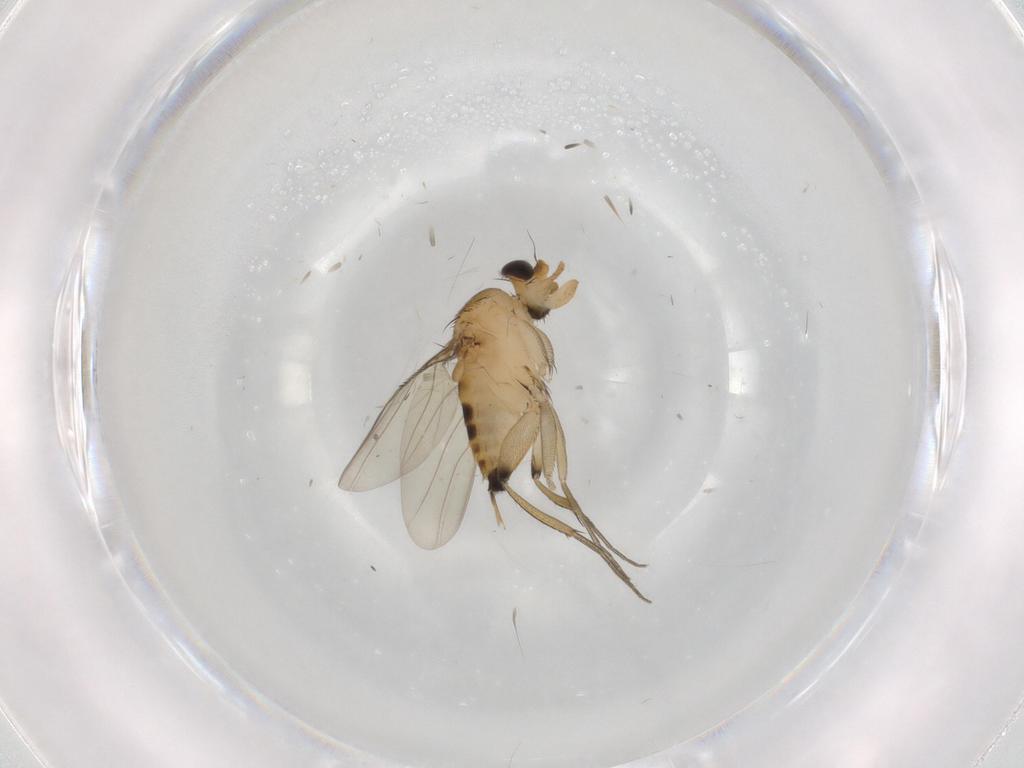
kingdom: Animalia
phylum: Arthropoda
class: Insecta
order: Diptera
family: Phoridae
